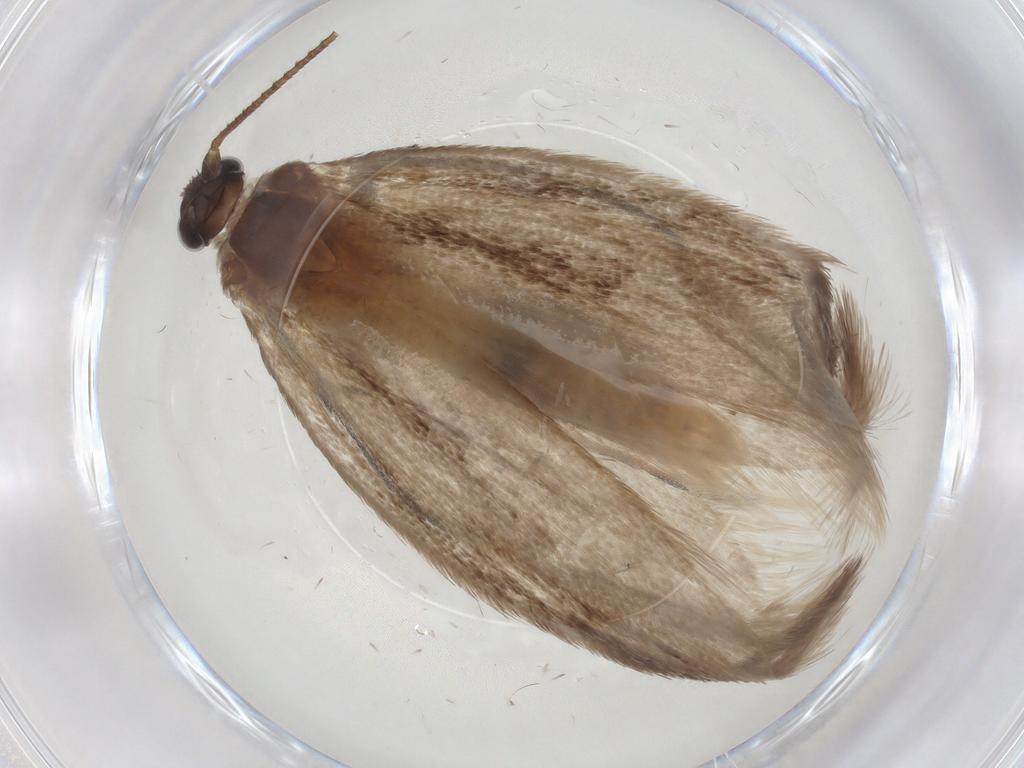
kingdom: Animalia
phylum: Arthropoda
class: Insecta
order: Lepidoptera
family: Roeslerstammiidae
